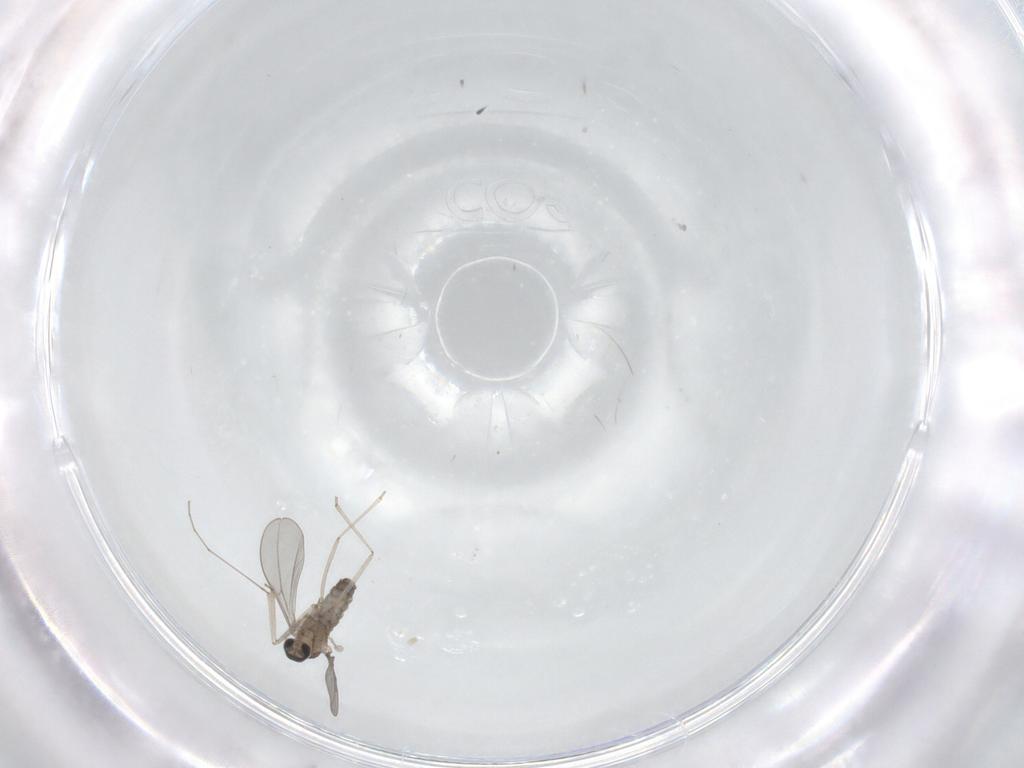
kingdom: Animalia
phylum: Arthropoda
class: Insecta
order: Diptera
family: Cecidomyiidae
